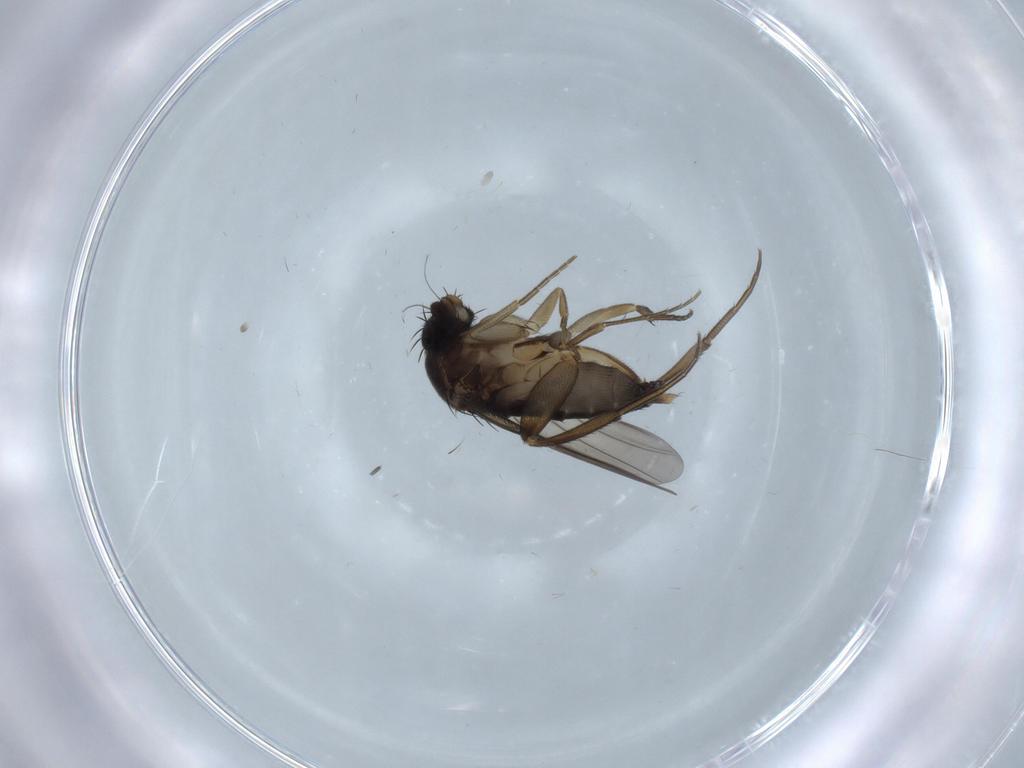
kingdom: Animalia
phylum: Arthropoda
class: Insecta
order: Diptera
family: Phoridae
